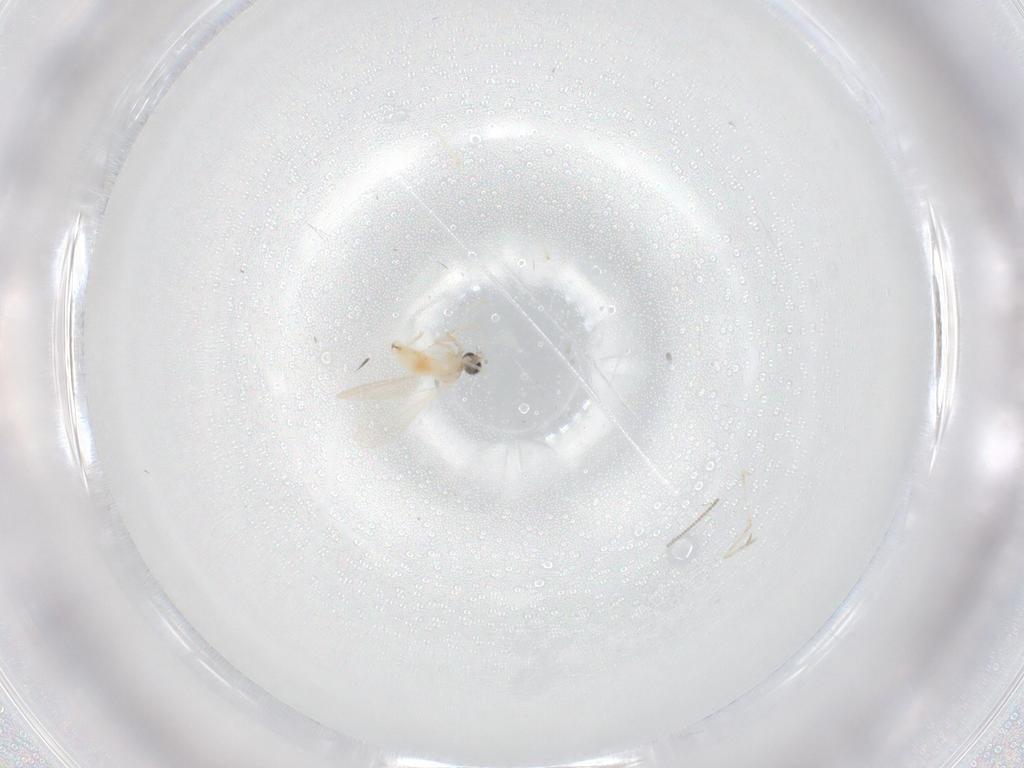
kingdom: Animalia
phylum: Arthropoda
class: Insecta
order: Diptera
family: Cecidomyiidae
